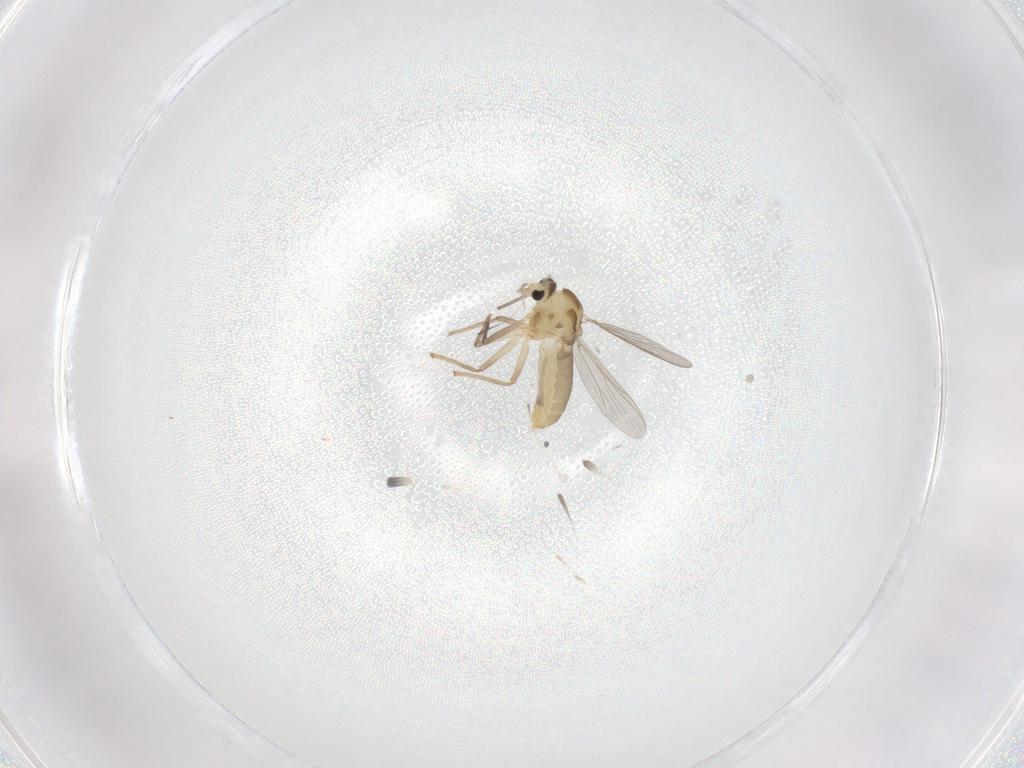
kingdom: Animalia
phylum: Arthropoda
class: Insecta
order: Diptera
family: Chironomidae
